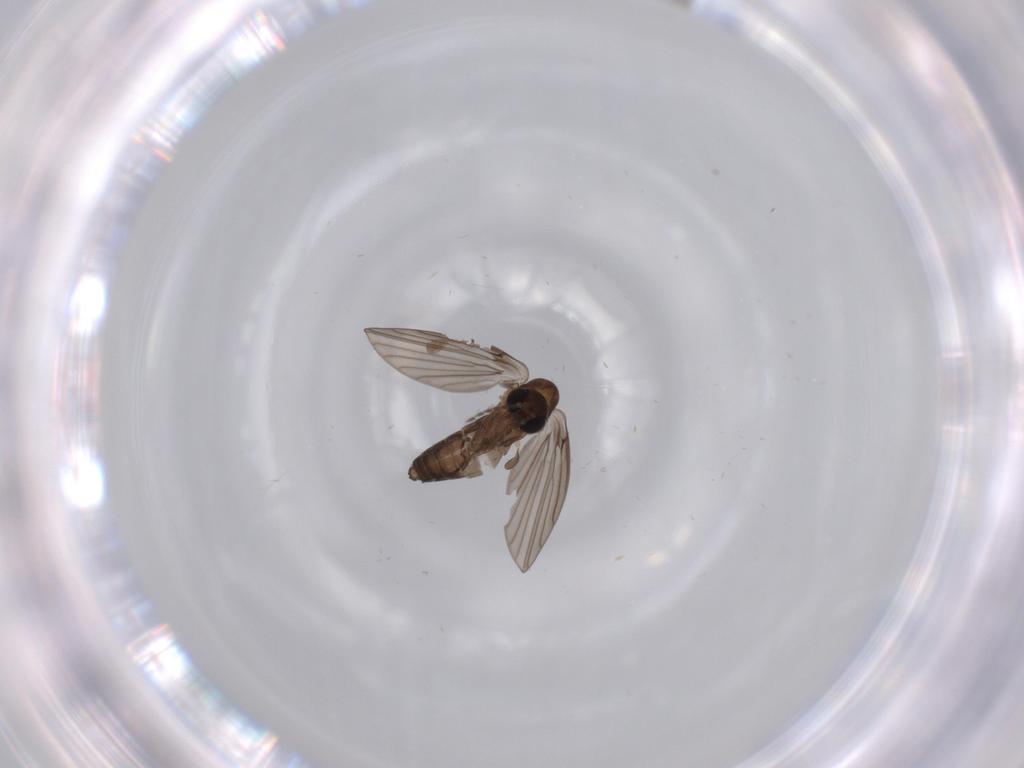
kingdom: Animalia
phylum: Arthropoda
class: Insecta
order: Diptera
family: Psychodidae
